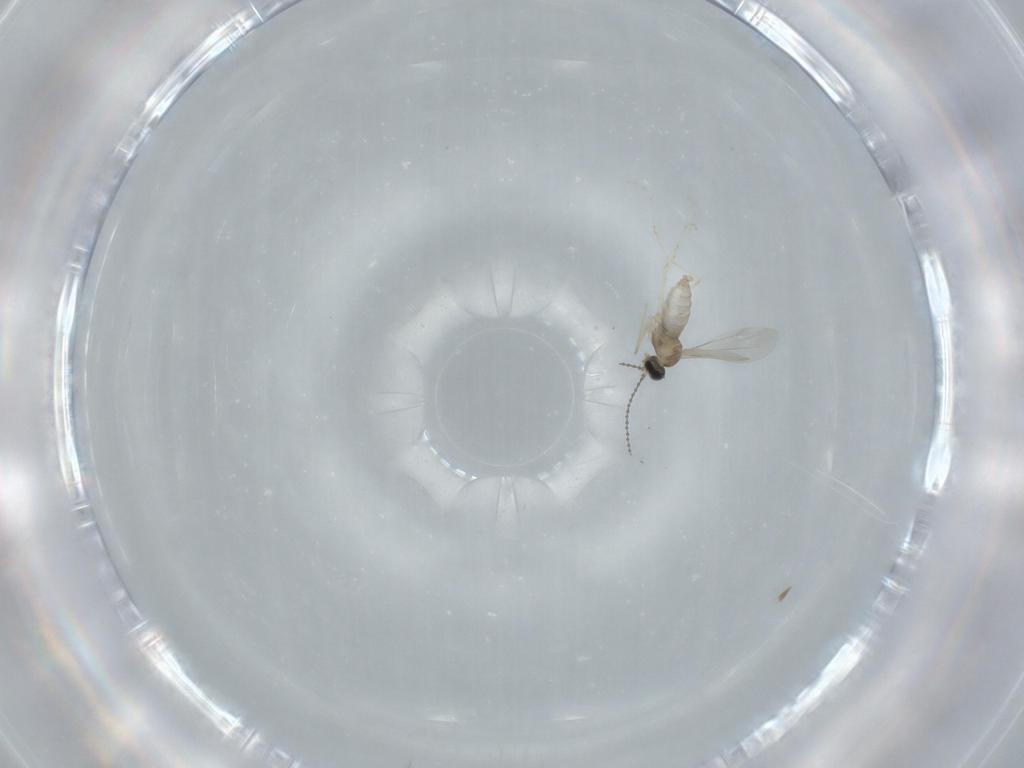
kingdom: Animalia
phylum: Arthropoda
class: Insecta
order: Diptera
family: Cecidomyiidae
